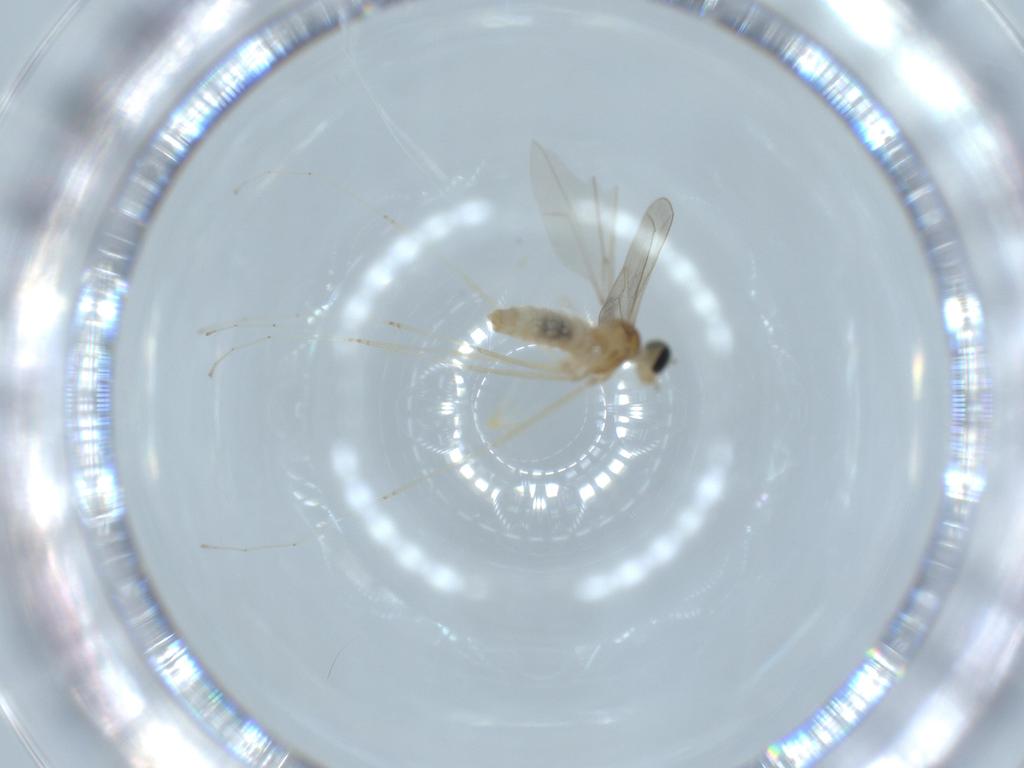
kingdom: Animalia
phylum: Arthropoda
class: Insecta
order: Diptera
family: Cecidomyiidae
